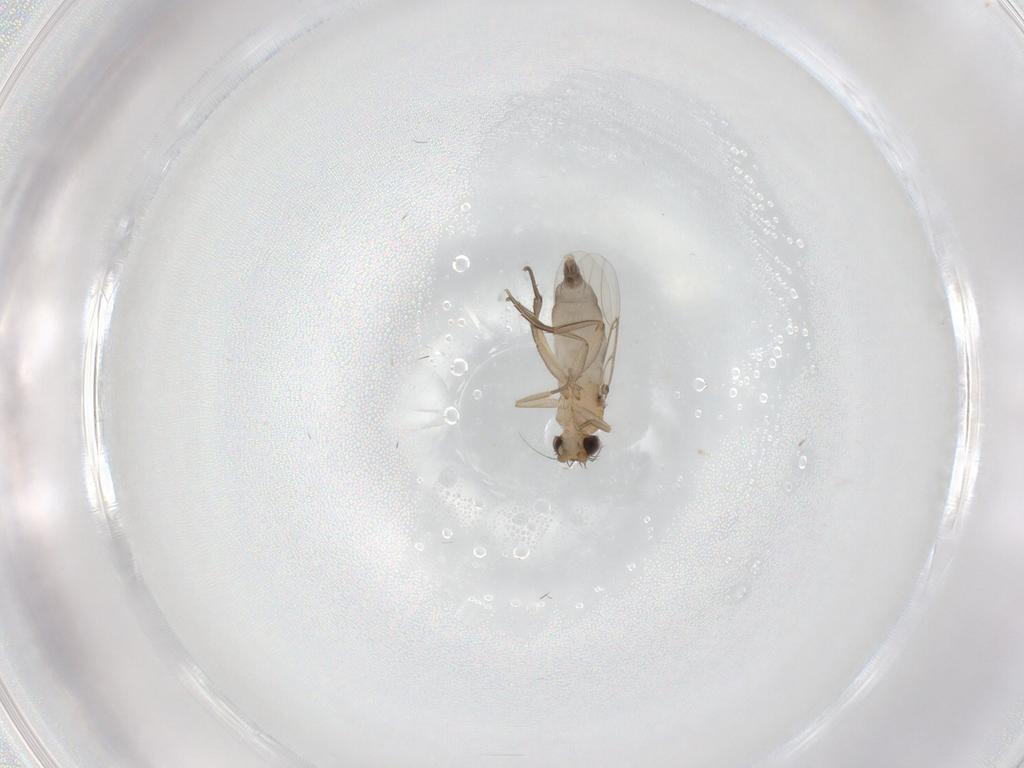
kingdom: Animalia
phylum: Arthropoda
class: Insecta
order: Diptera
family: Phoridae
